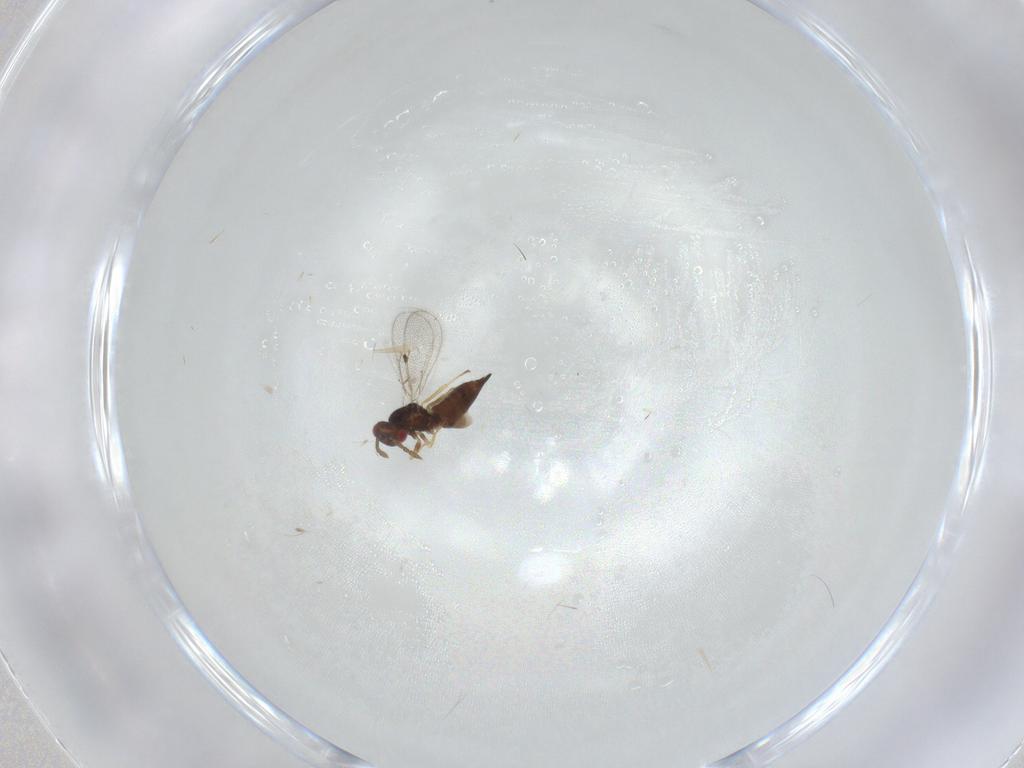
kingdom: Animalia
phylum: Arthropoda
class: Insecta
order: Hymenoptera
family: Eulophidae
